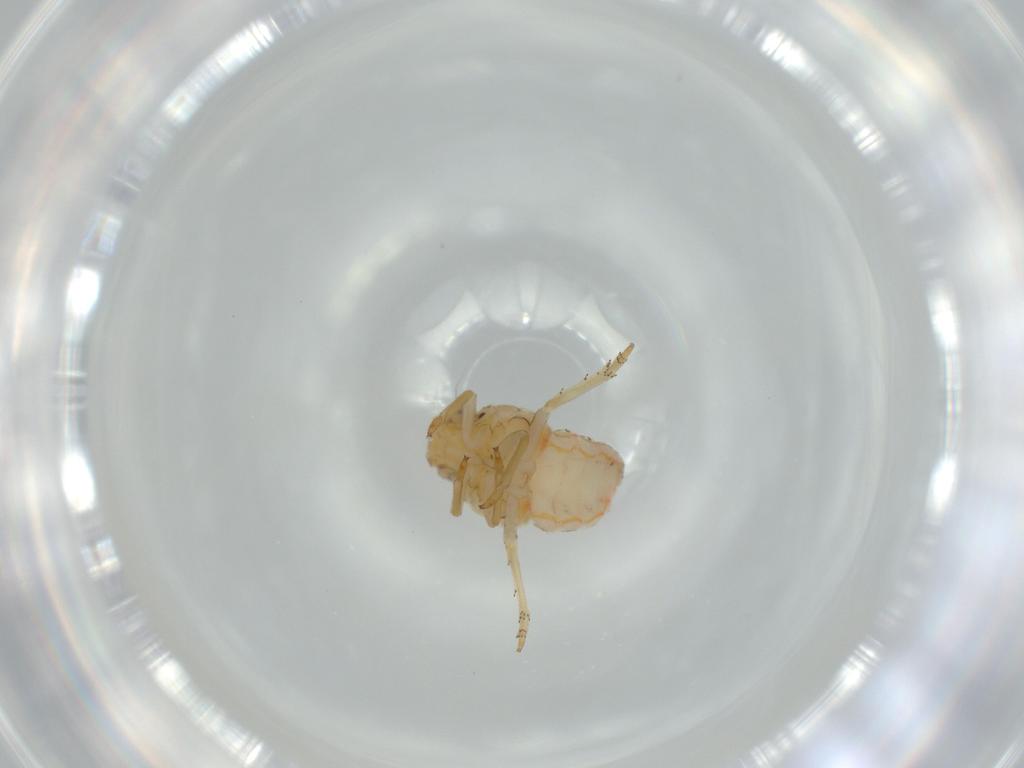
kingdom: Animalia
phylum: Arthropoda
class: Insecta
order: Hemiptera
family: Issidae
